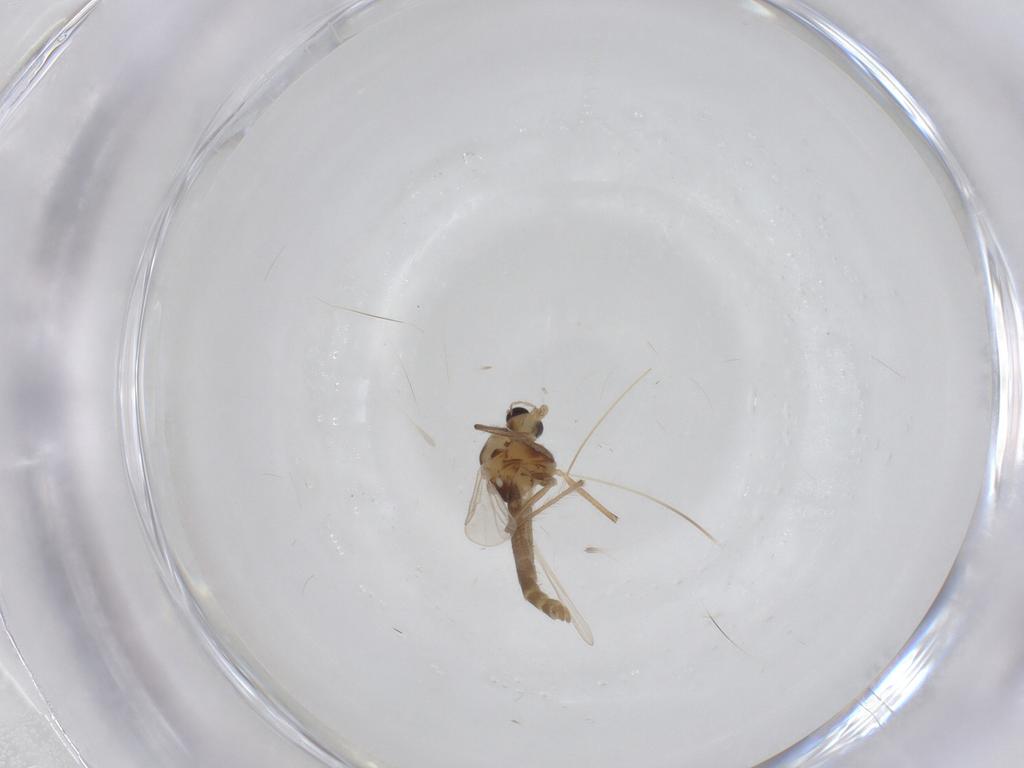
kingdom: Animalia
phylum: Arthropoda
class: Insecta
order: Diptera
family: Chironomidae
